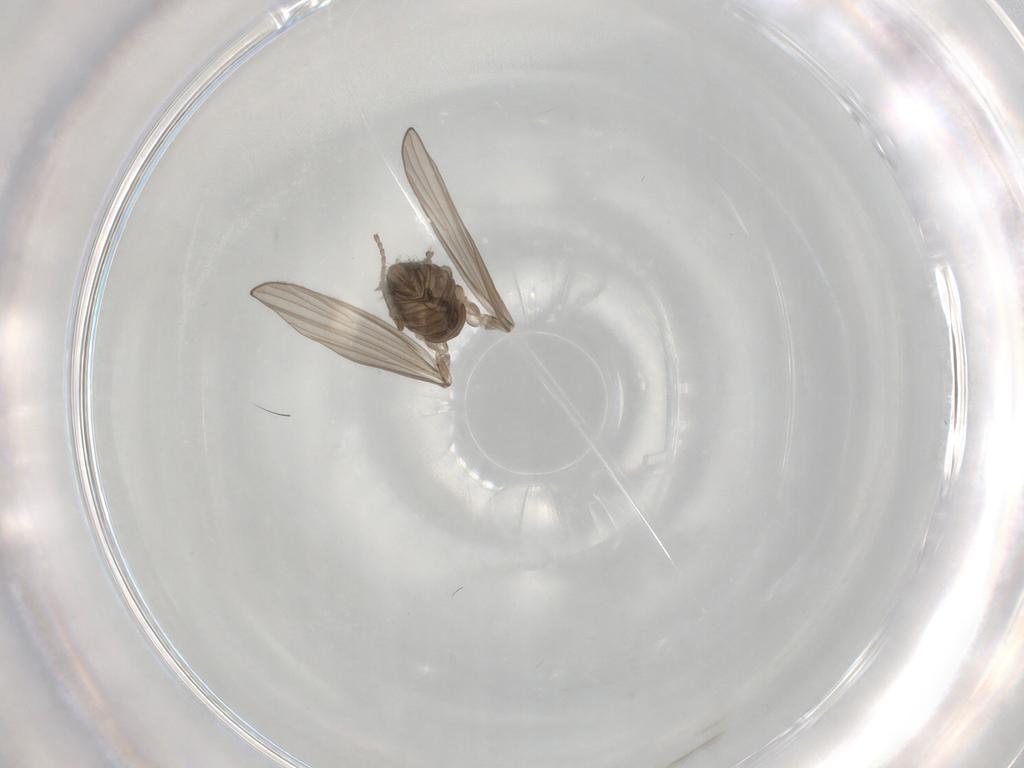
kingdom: Animalia
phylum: Arthropoda
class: Insecta
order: Diptera
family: Psychodidae
